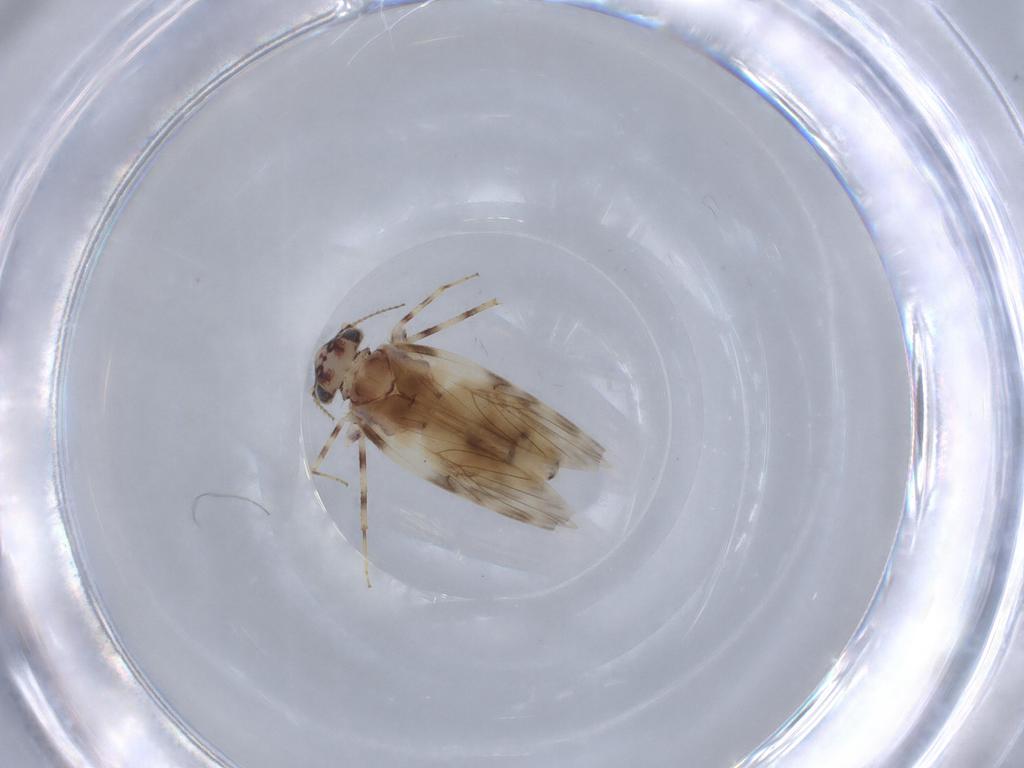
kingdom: Animalia
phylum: Arthropoda
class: Insecta
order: Psocodea
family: Lepidopsocidae
